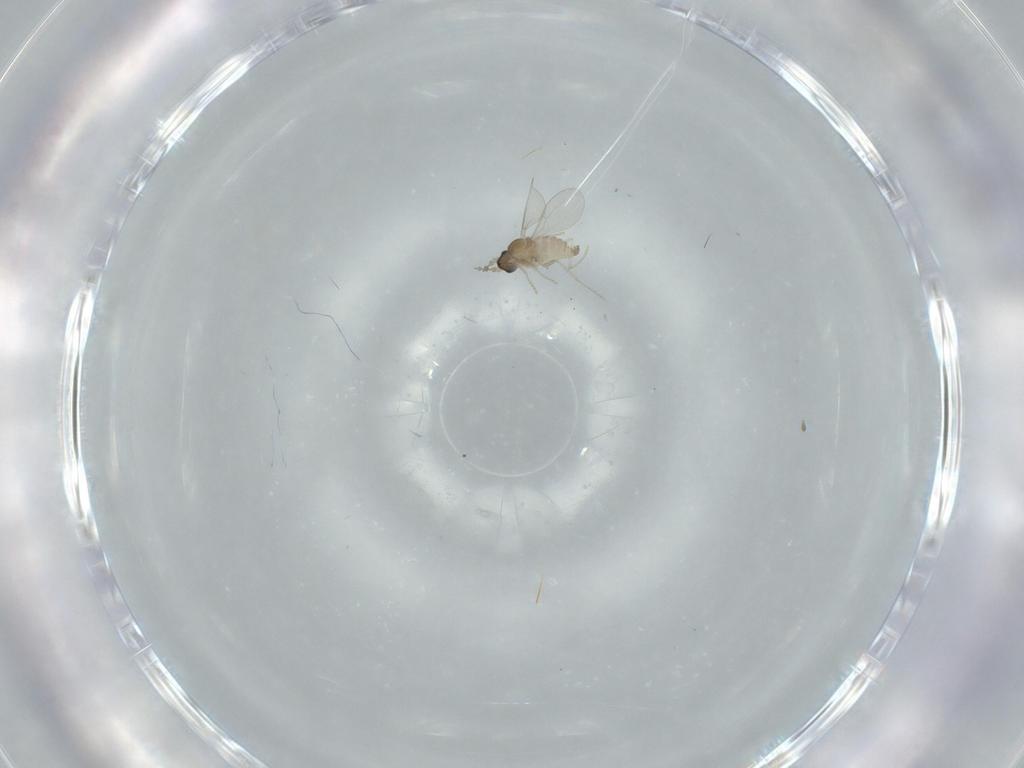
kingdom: Animalia
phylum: Arthropoda
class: Insecta
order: Diptera
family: Cecidomyiidae
